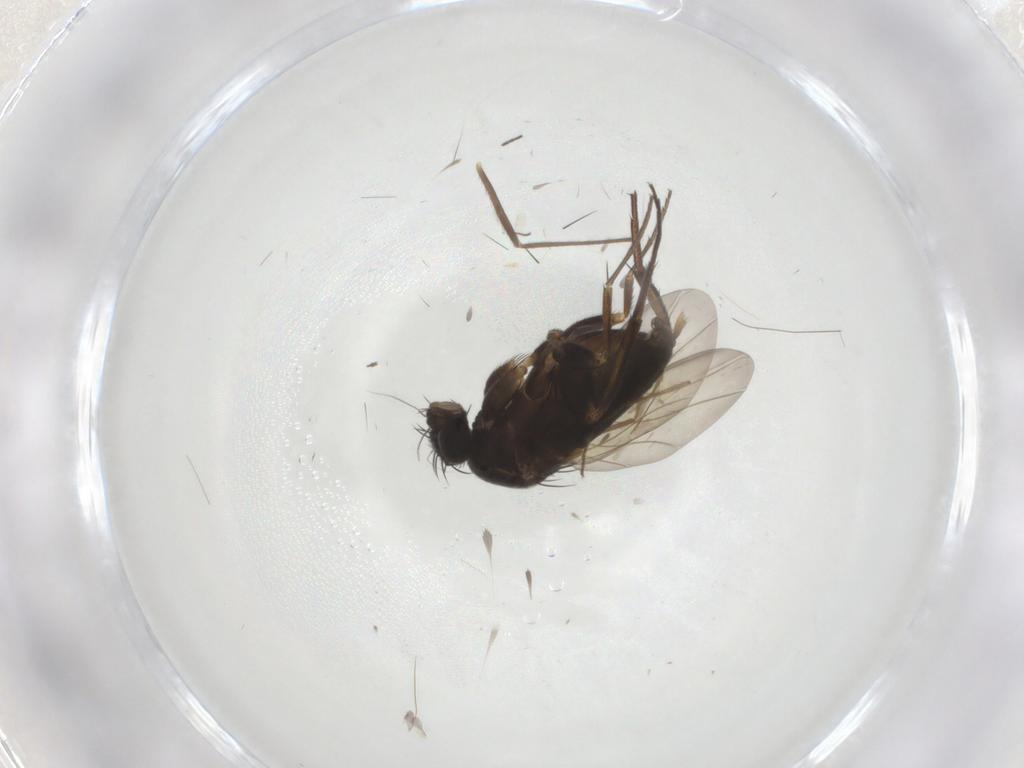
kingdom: Animalia
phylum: Arthropoda
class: Insecta
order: Diptera
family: Phoridae
